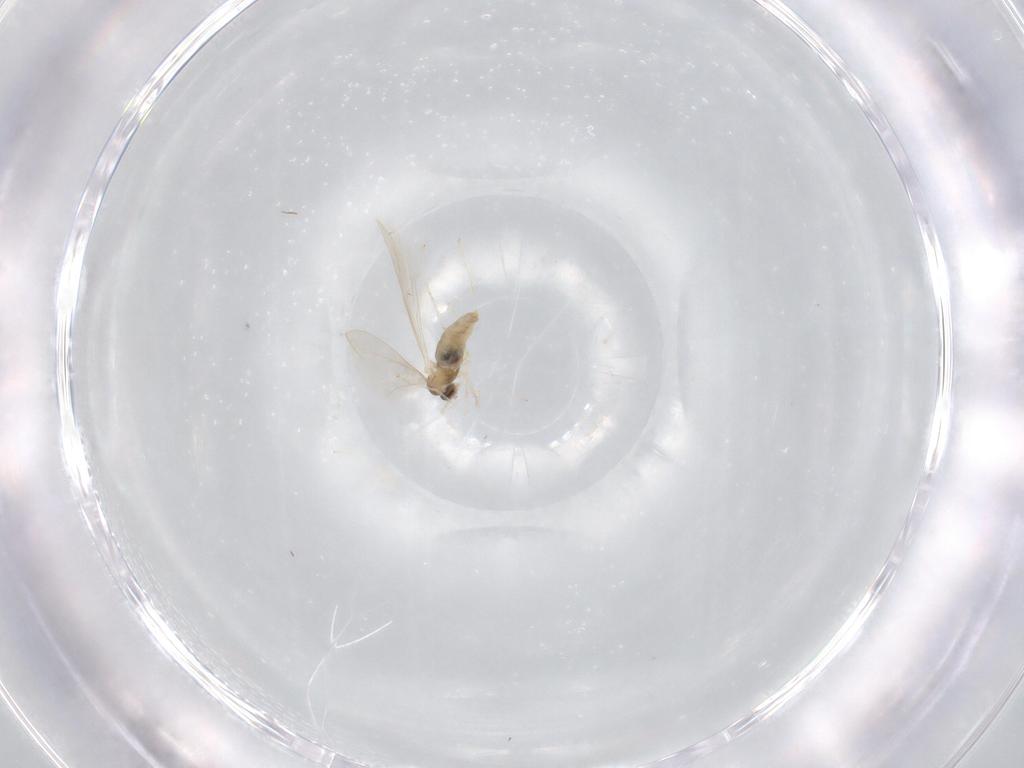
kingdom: Animalia
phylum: Arthropoda
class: Insecta
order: Diptera
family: Cecidomyiidae
